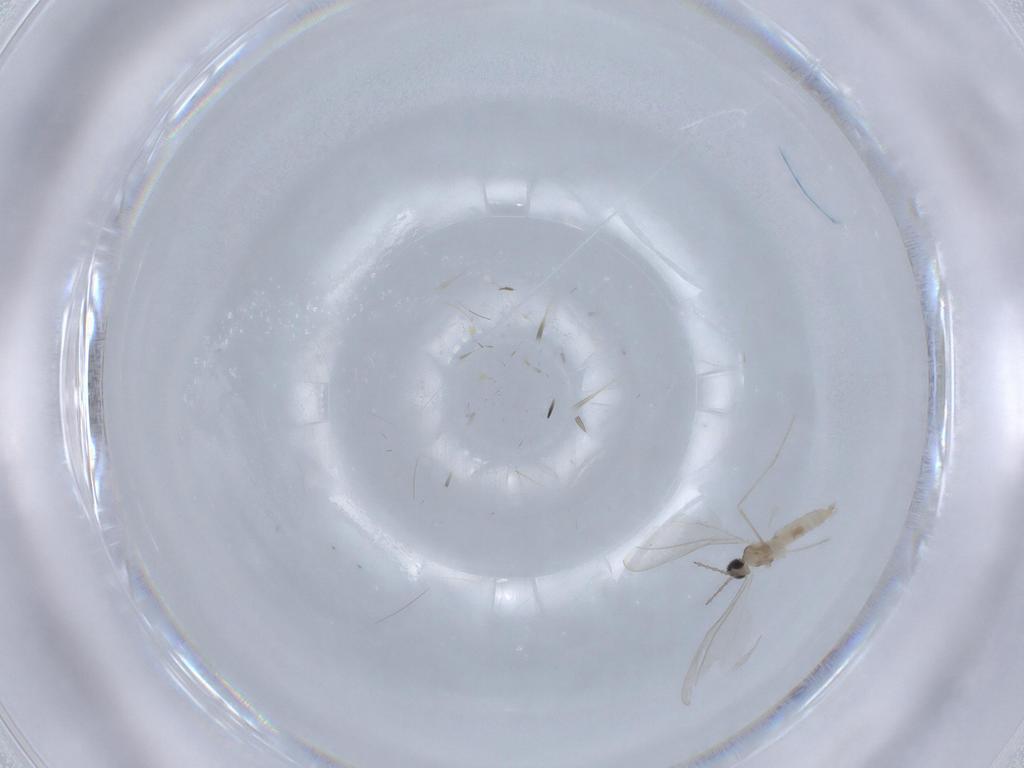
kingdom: Animalia
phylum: Arthropoda
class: Insecta
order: Diptera
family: Cecidomyiidae
